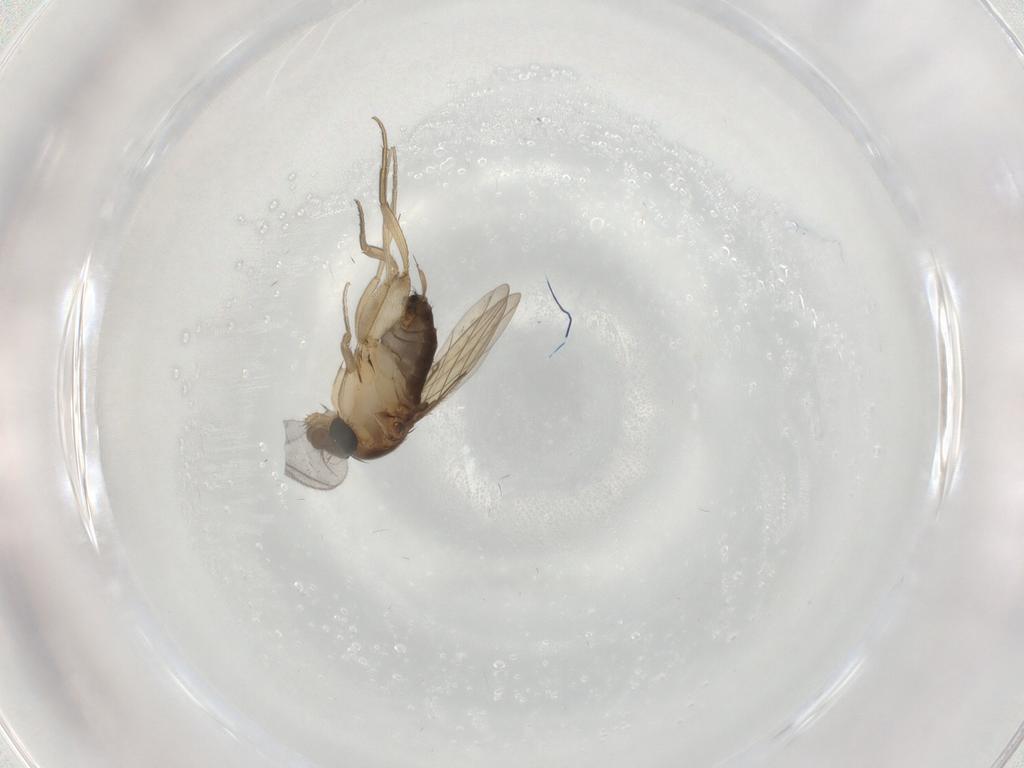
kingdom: Animalia
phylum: Arthropoda
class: Insecta
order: Diptera
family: Phoridae
